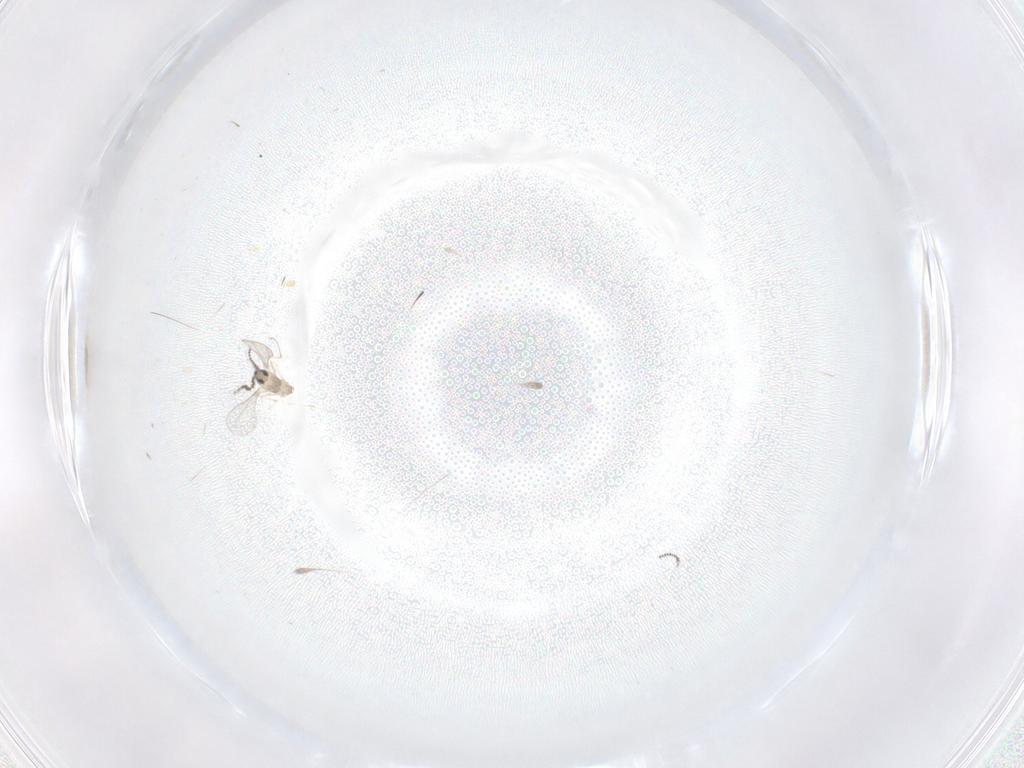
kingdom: Animalia
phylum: Arthropoda
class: Insecta
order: Diptera
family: Cecidomyiidae
